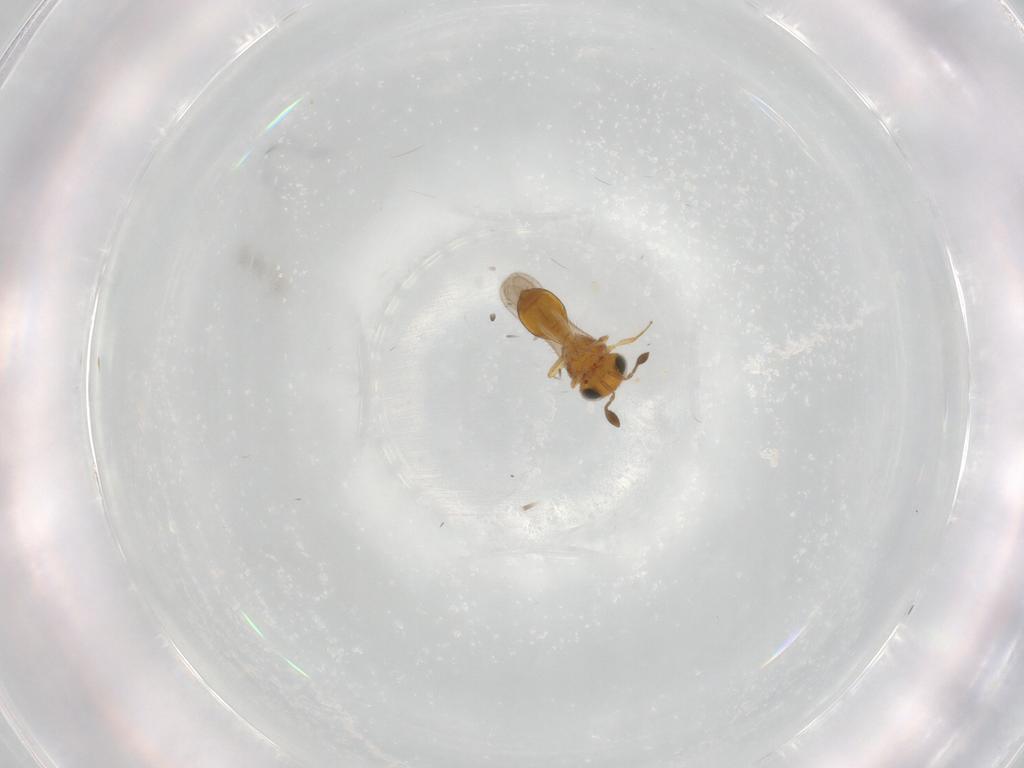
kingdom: Animalia
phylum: Arthropoda
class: Insecta
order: Hymenoptera
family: Scelionidae
